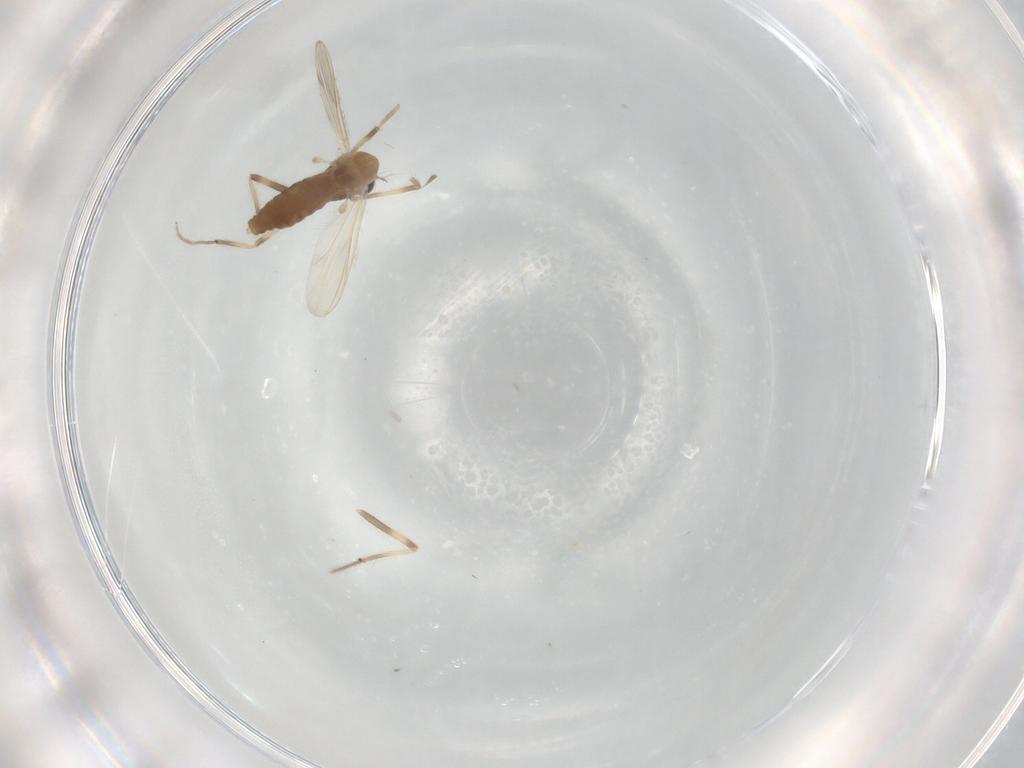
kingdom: Animalia
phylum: Arthropoda
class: Insecta
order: Diptera
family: Chironomidae
